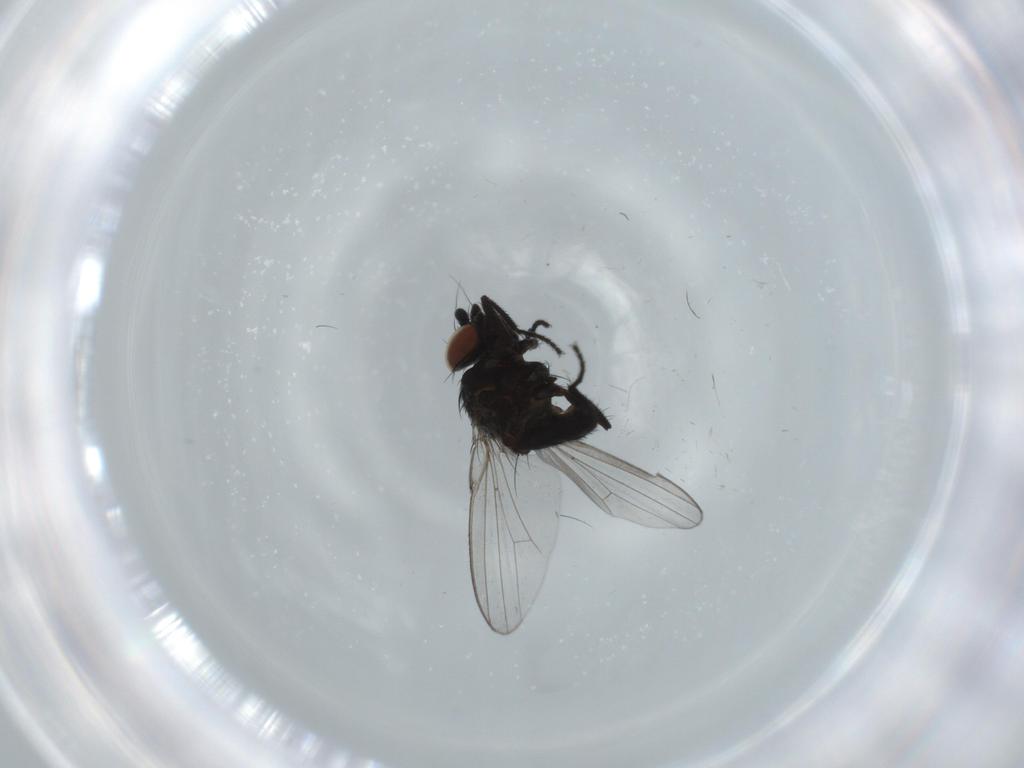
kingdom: Animalia
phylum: Arthropoda
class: Insecta
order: Diptera
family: Milichiidae
